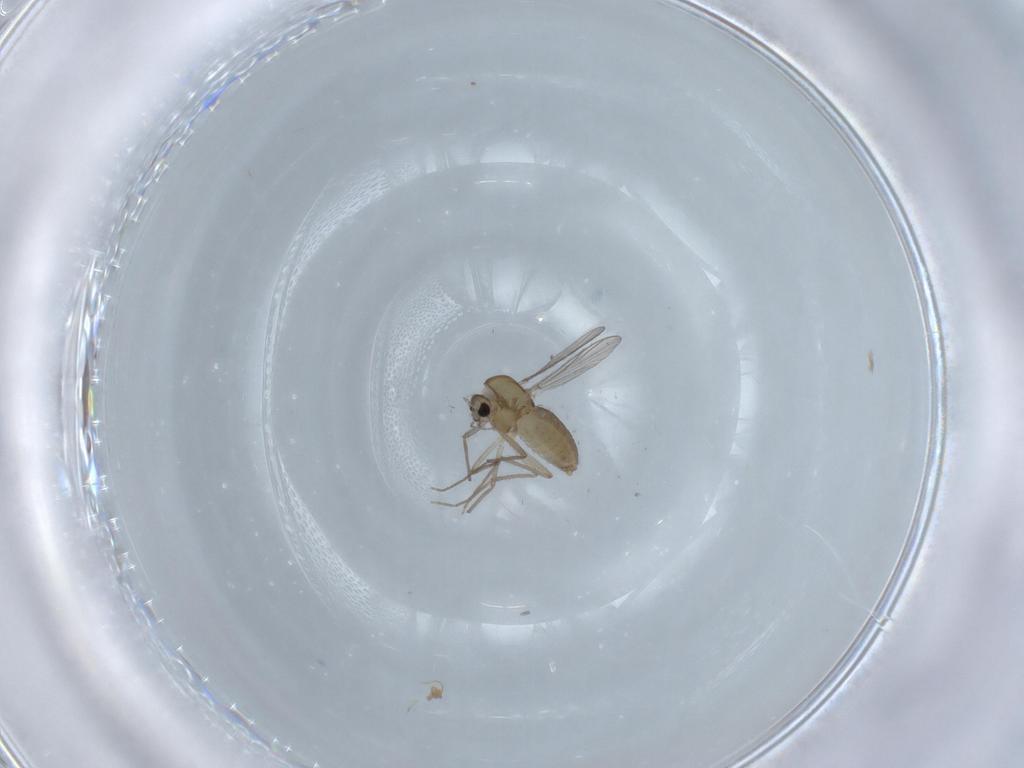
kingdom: Animalia
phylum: Arthropoda
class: Insecta
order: Diptera
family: Chironomidae
